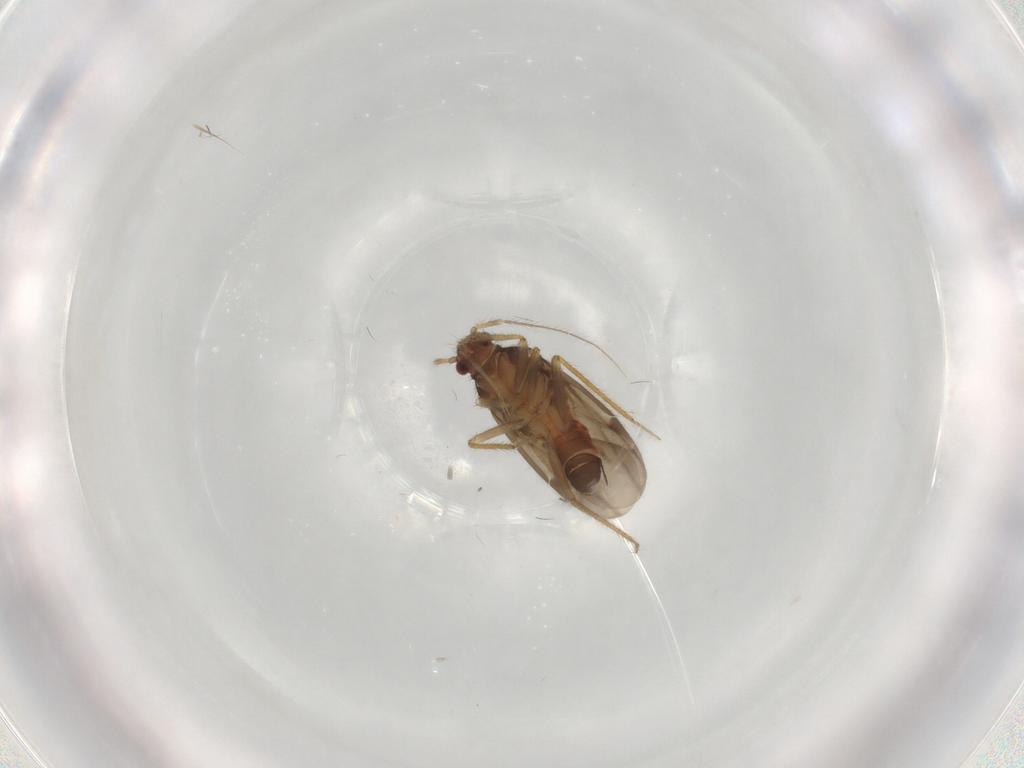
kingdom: Animalia
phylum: Arthropoda
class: Insecta
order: Hemiptera
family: Ceratocombidae
